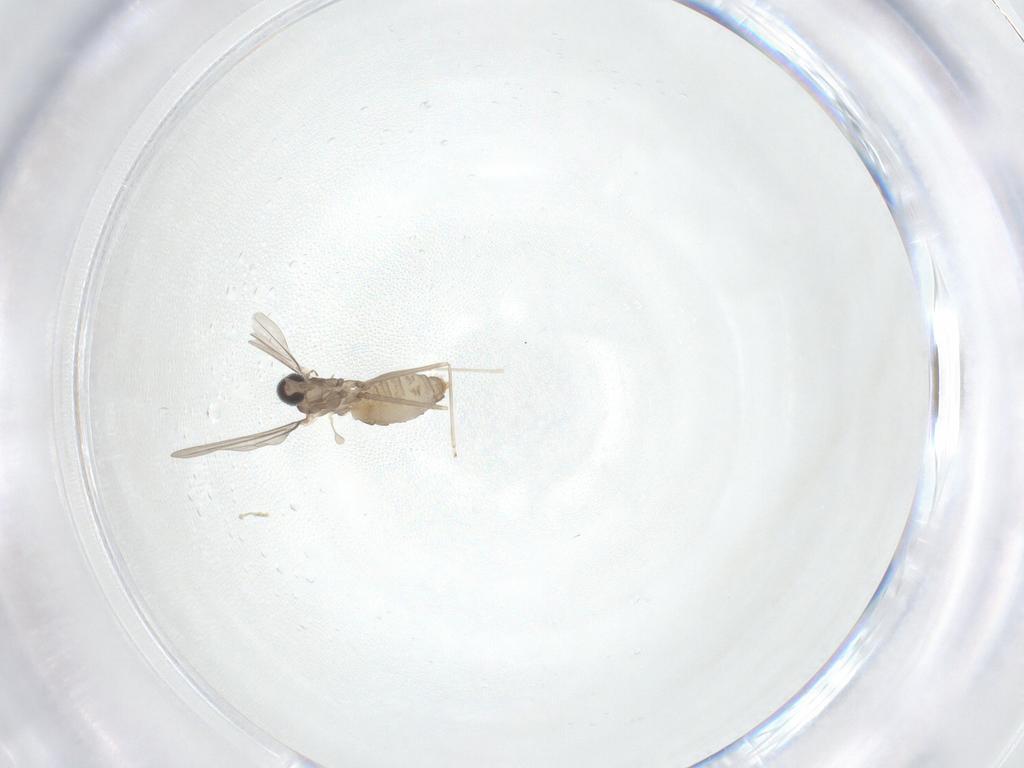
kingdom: Animalia
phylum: Arthropoda
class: Insecta
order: Diptera
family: Cecidomyiidae
